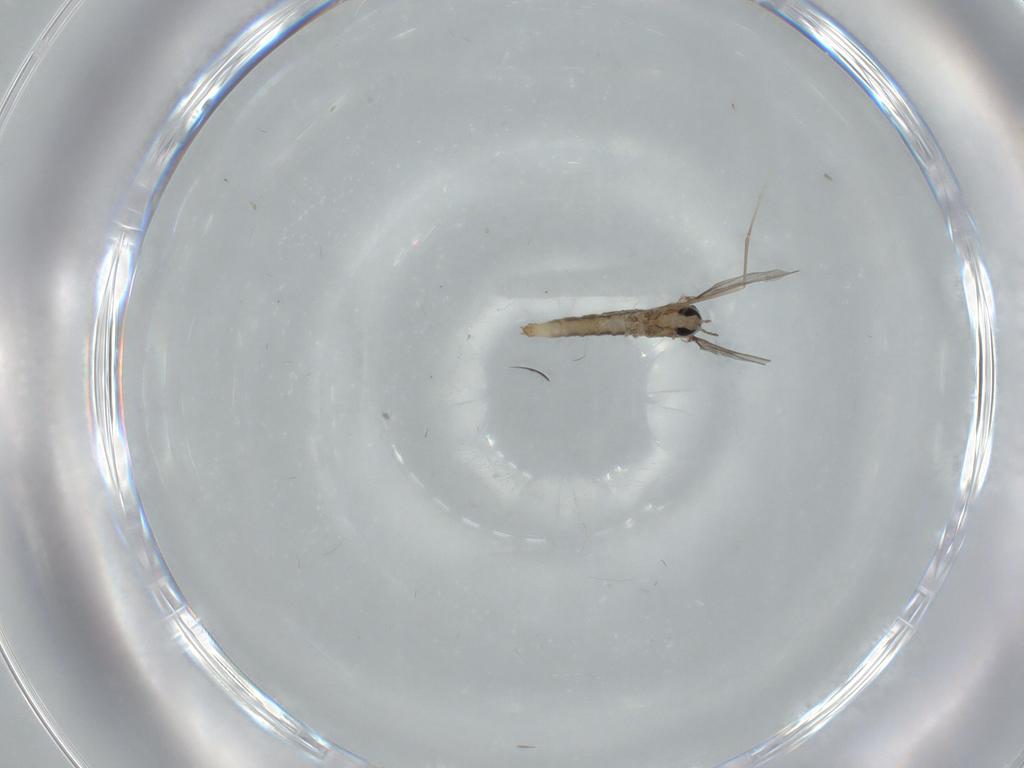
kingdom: Animalia
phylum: Arthropoda
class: Insecta
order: Diptera
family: Cecidomyiidae
